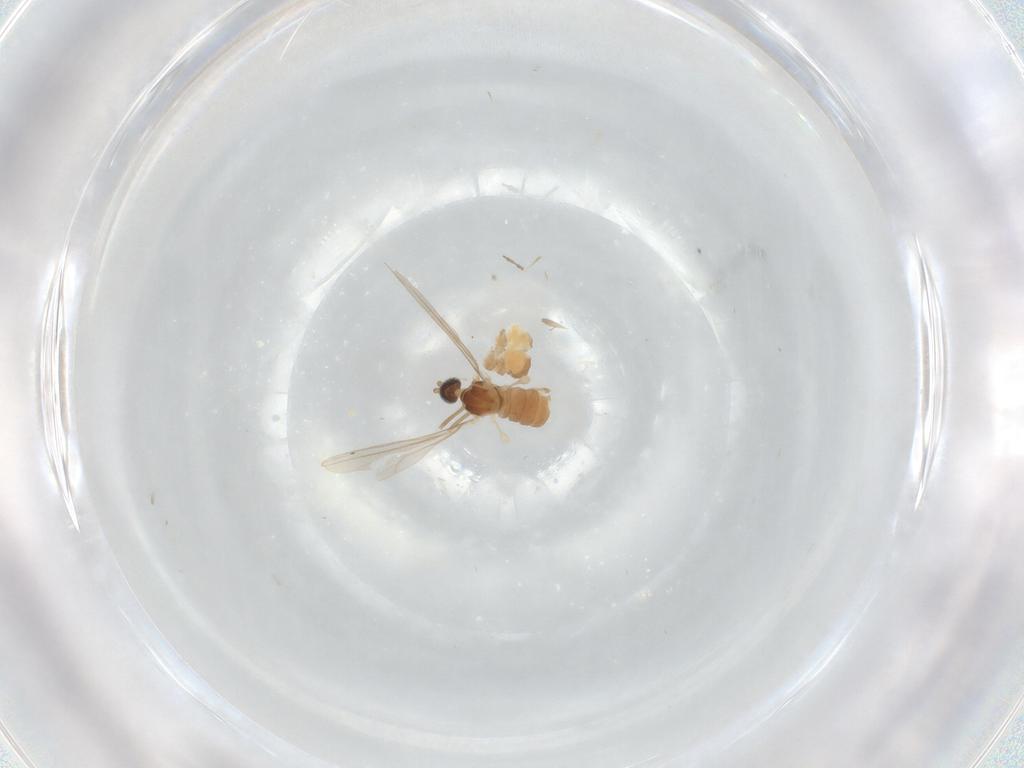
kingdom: Animalia
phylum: Arthropoda
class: Insecta
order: Diptera
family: Cecidomyiidae
